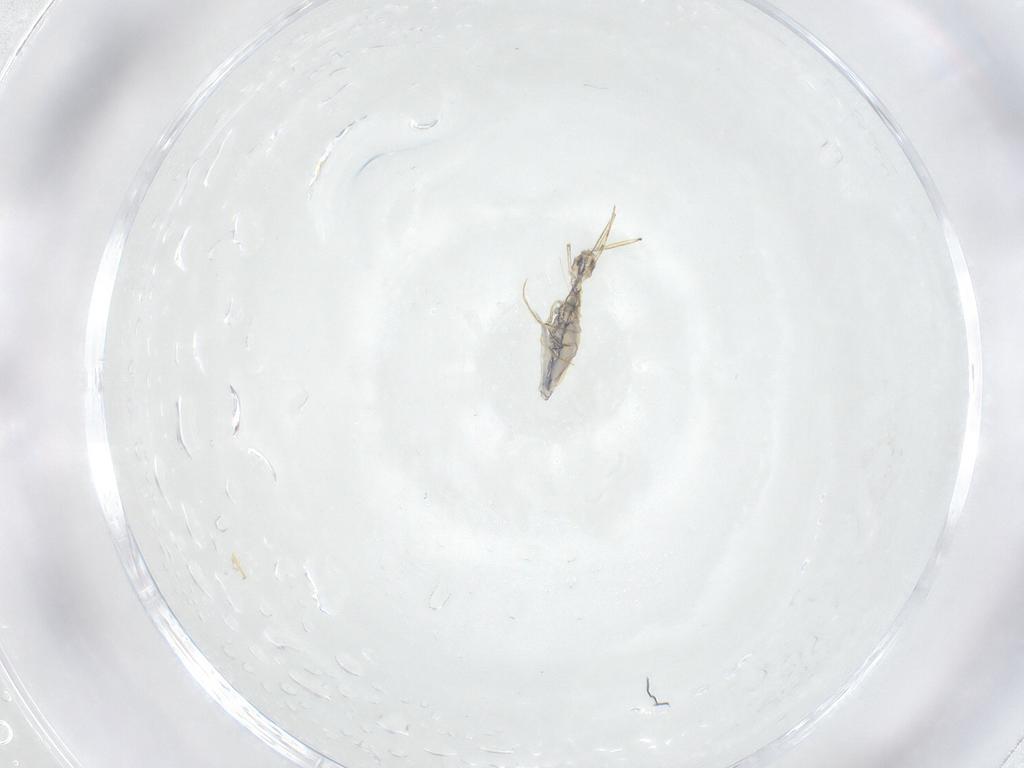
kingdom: Animalia
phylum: Arthropoda
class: Collembola
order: Entomobryomorpha
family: Entomobryidae
